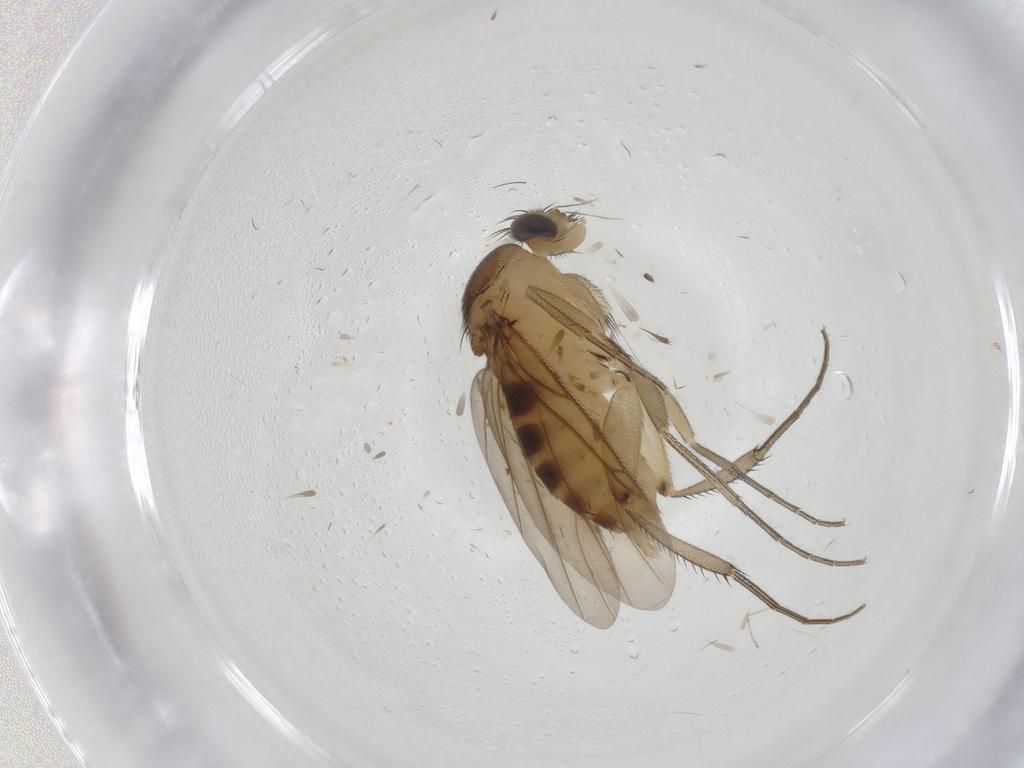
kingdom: Animalia
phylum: Arthropoda
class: Insecta
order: Diptera
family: Phoridae
